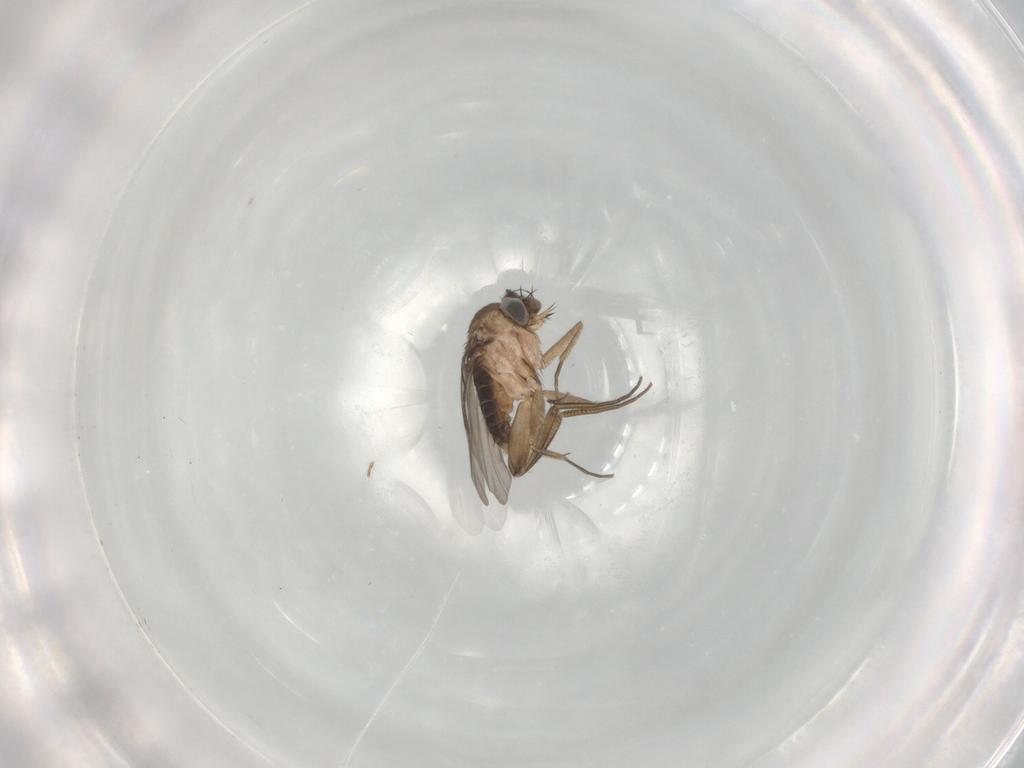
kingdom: Animalia
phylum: Arthropoda
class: Insecta
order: Diptera
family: Phoridae
